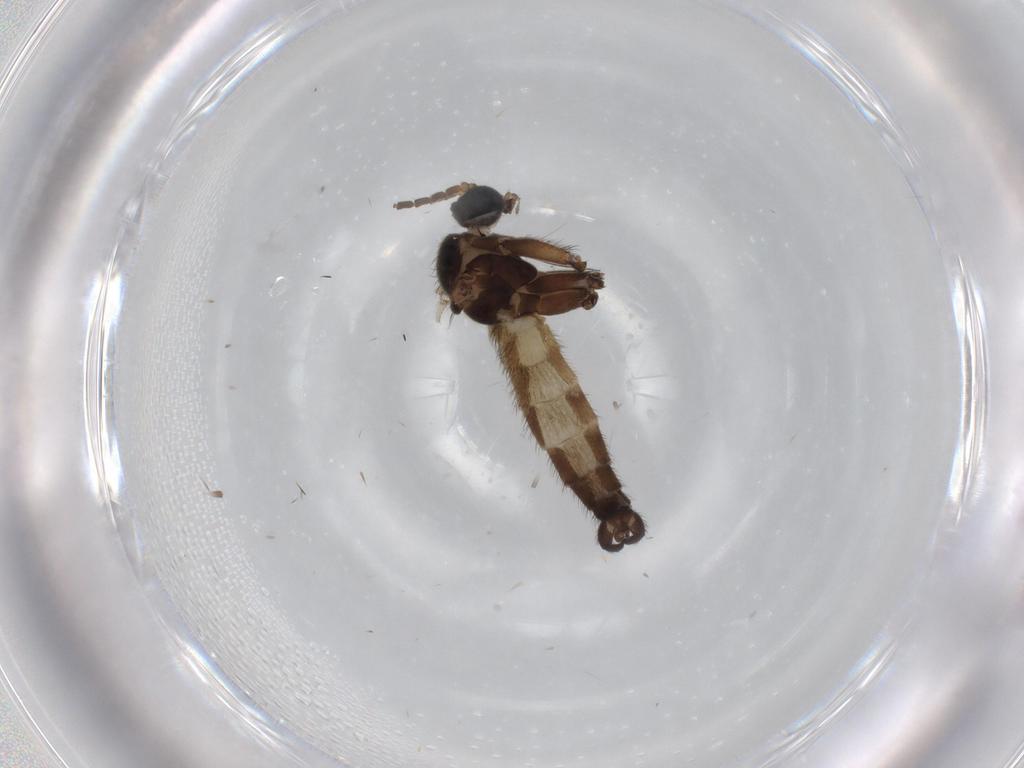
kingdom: Animalia
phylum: Arthropoda
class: Insecta
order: Diptera
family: Sciaridae
